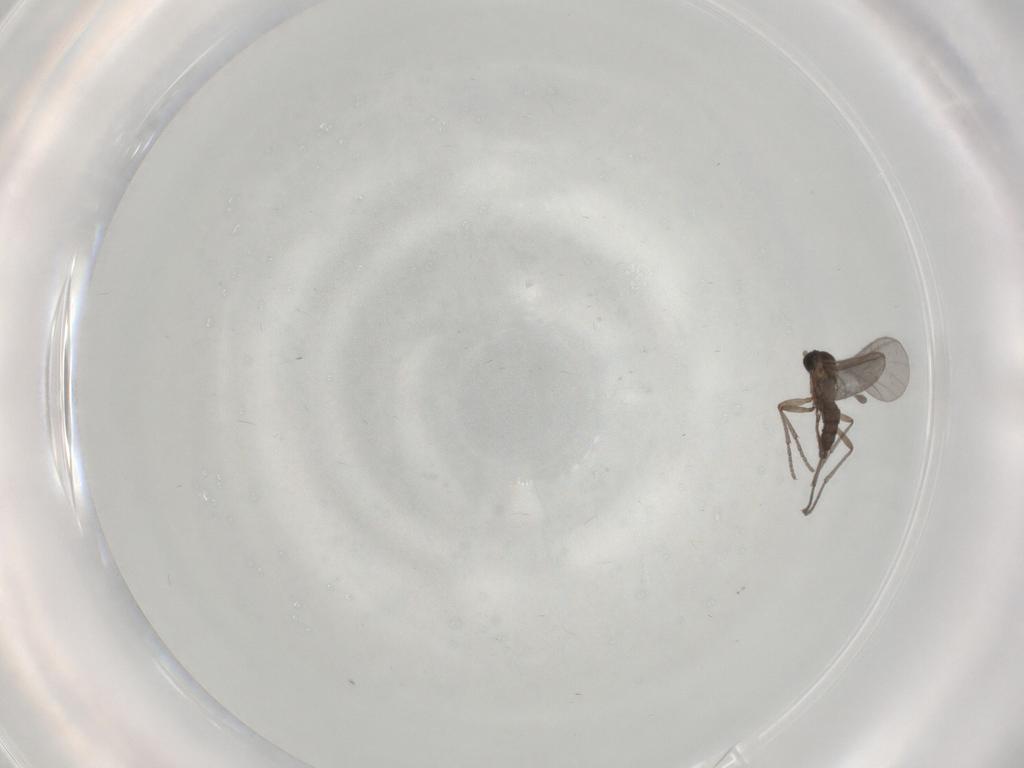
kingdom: Animalia
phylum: Arthropoda
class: Insecta
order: Diptera
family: Sciaridae
